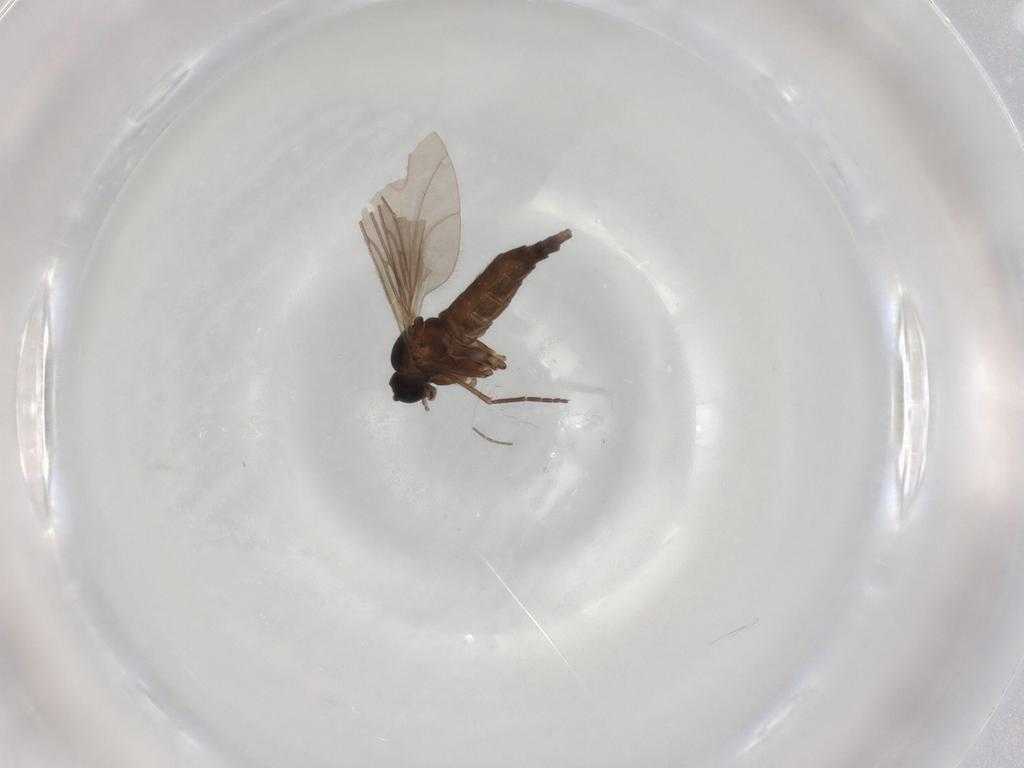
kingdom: Animalia
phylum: Arthropoda
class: Insecta
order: Diptera
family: Sciaridae
